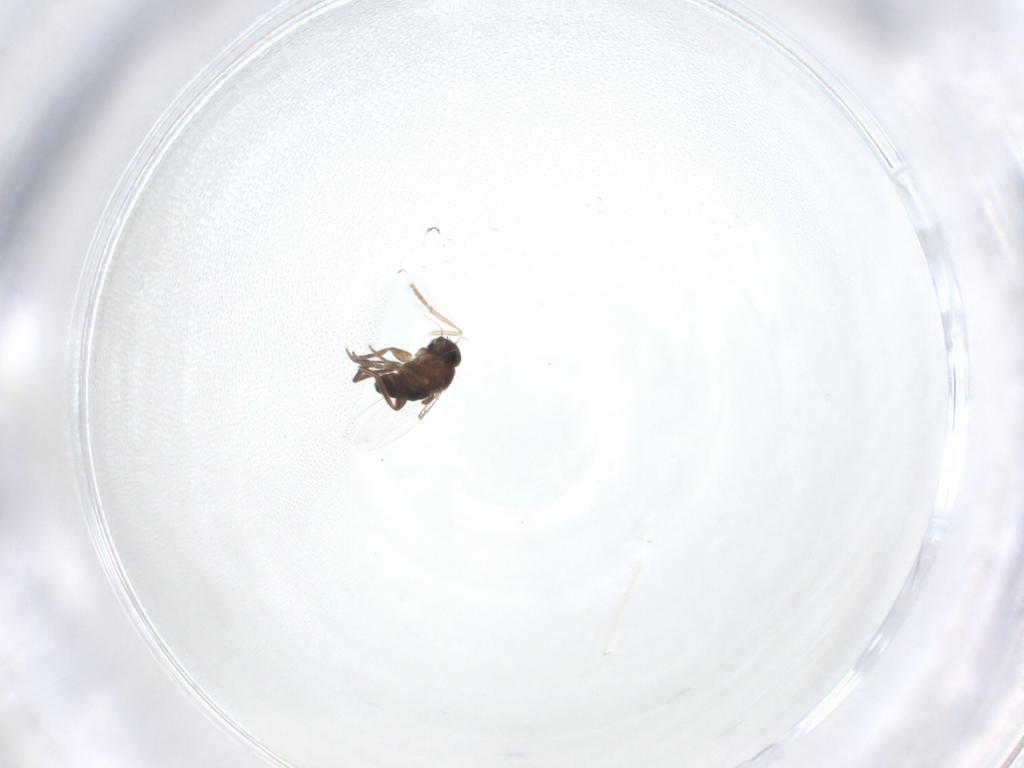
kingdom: Animalia
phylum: Arthropoda
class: Insecta
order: Diptera
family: Phoridae
